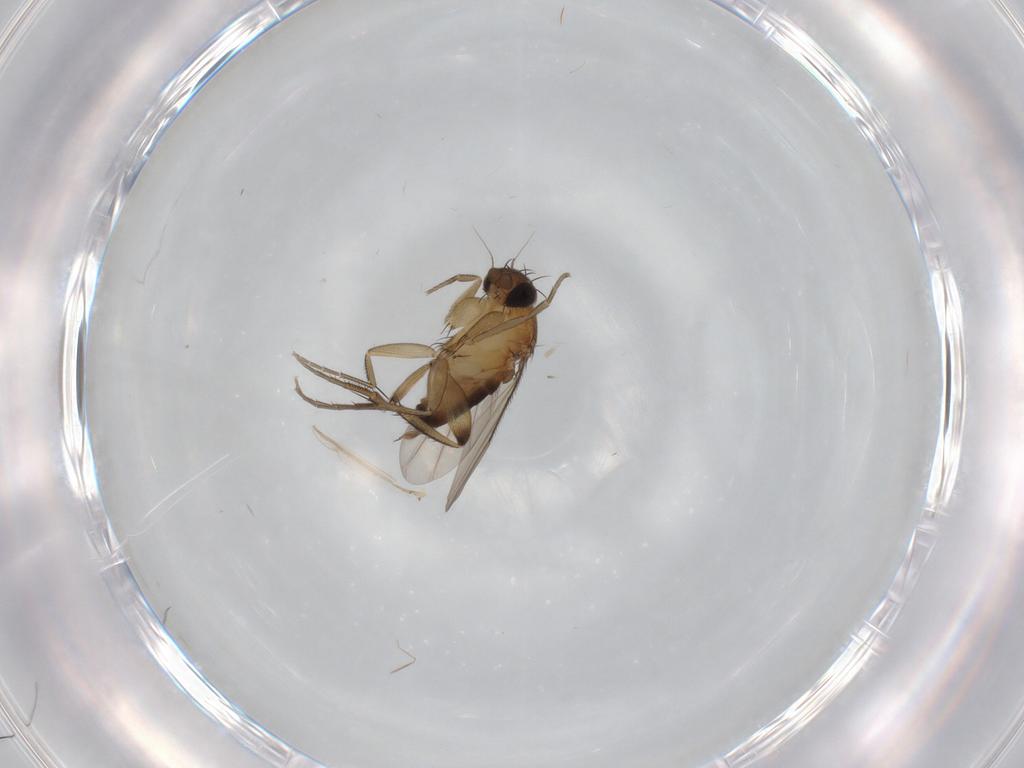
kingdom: Animalia
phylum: Arthropoda
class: Insecta
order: Diptera
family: Phoridae
